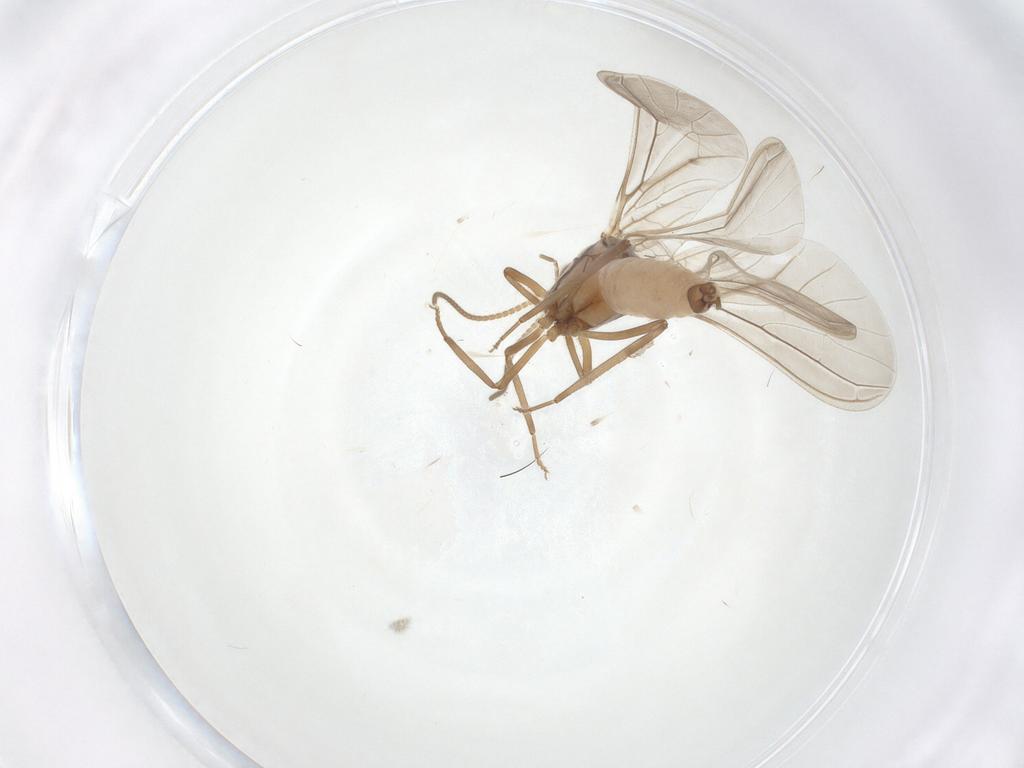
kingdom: Animalia
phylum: Arthropoda
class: Insecta
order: Neuroptera
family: Coniopterygidae
